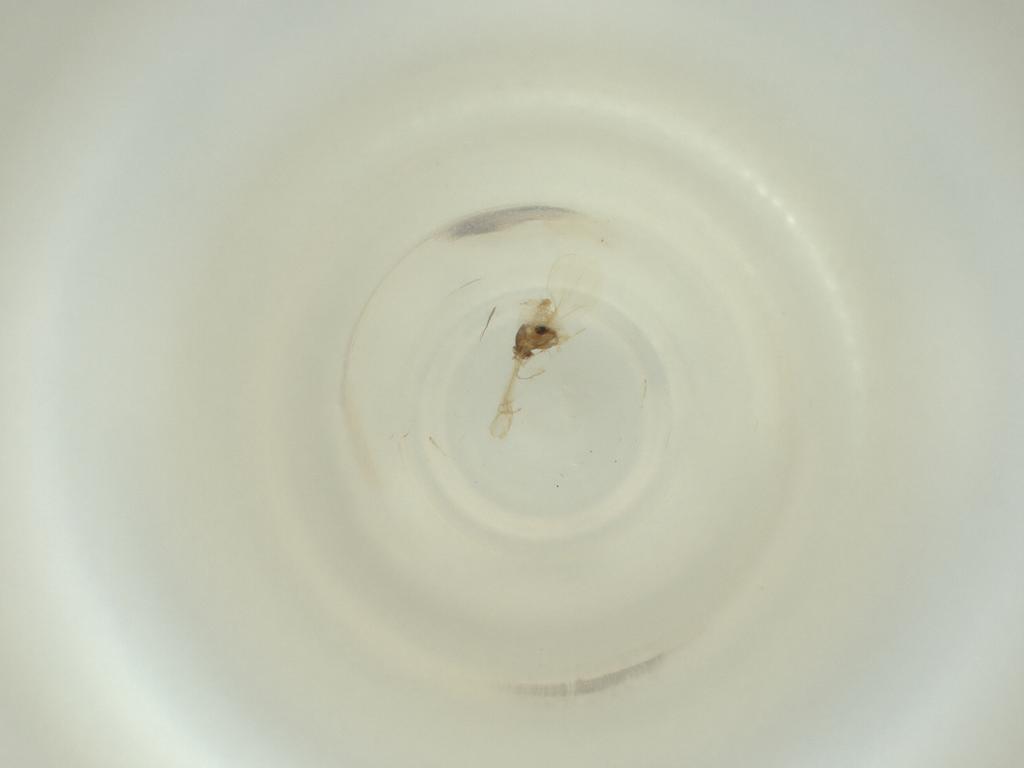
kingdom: Animalia
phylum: Arthropoda
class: Insecta
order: Diptera
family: Cecidomyiidae
